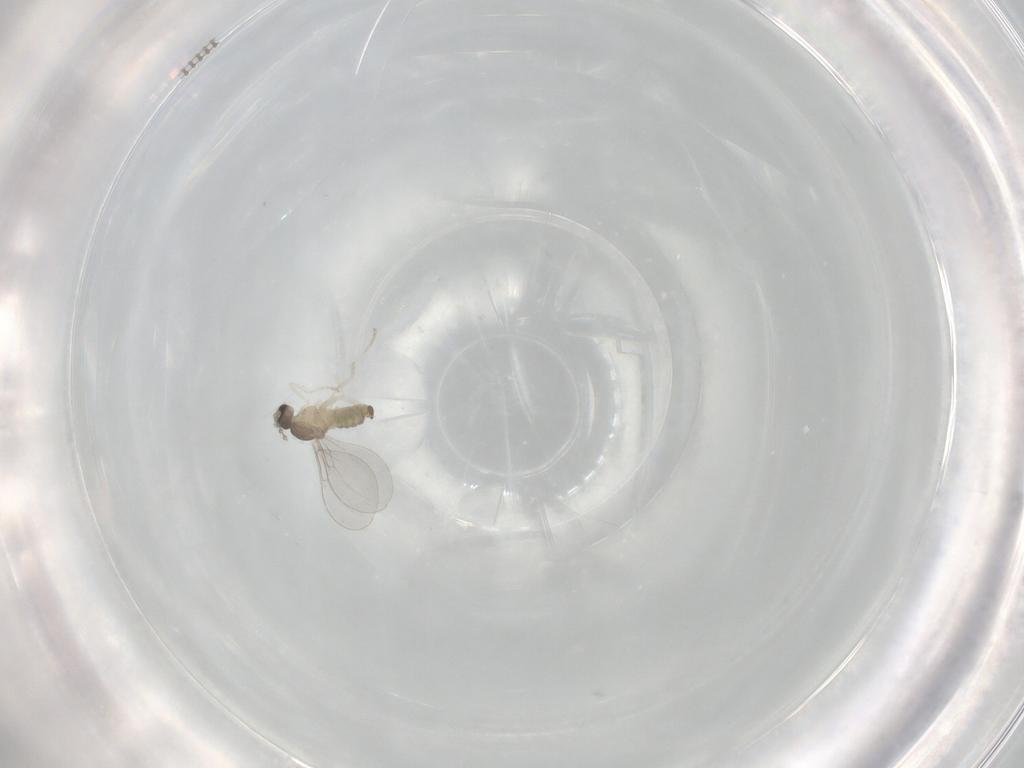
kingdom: Animalia
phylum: Arthropoda
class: Insecta
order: Diptera
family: Cecidomyiidae
